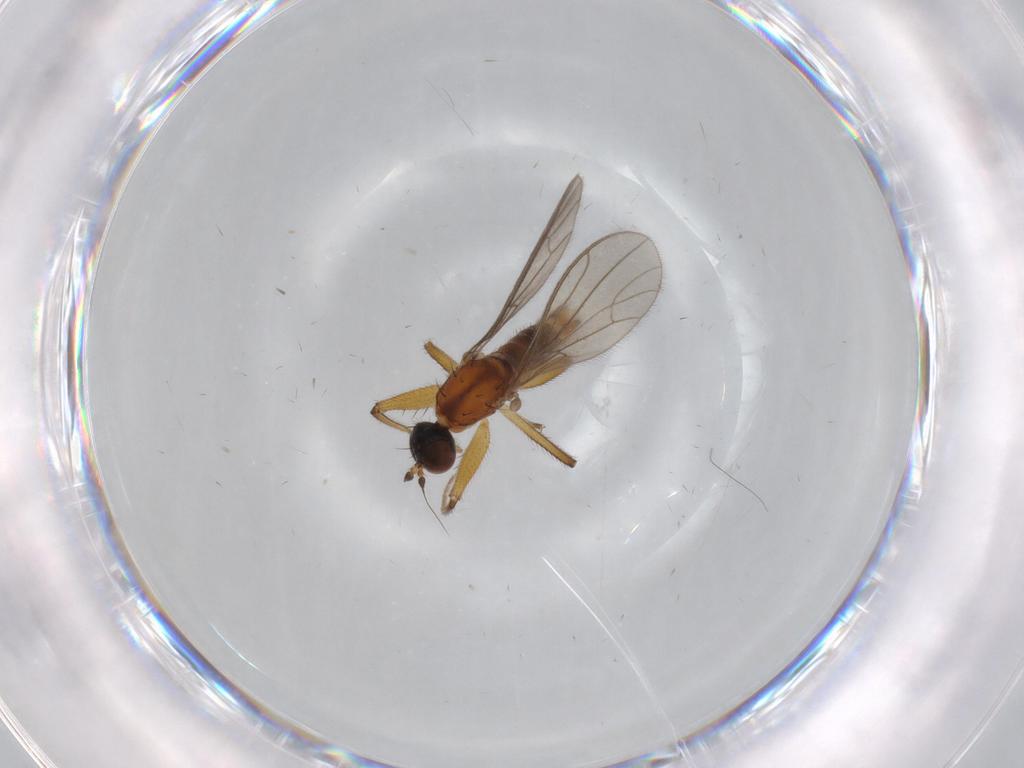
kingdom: Animalia
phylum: Arthropoda
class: Insecta
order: Diptera
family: Empididae
